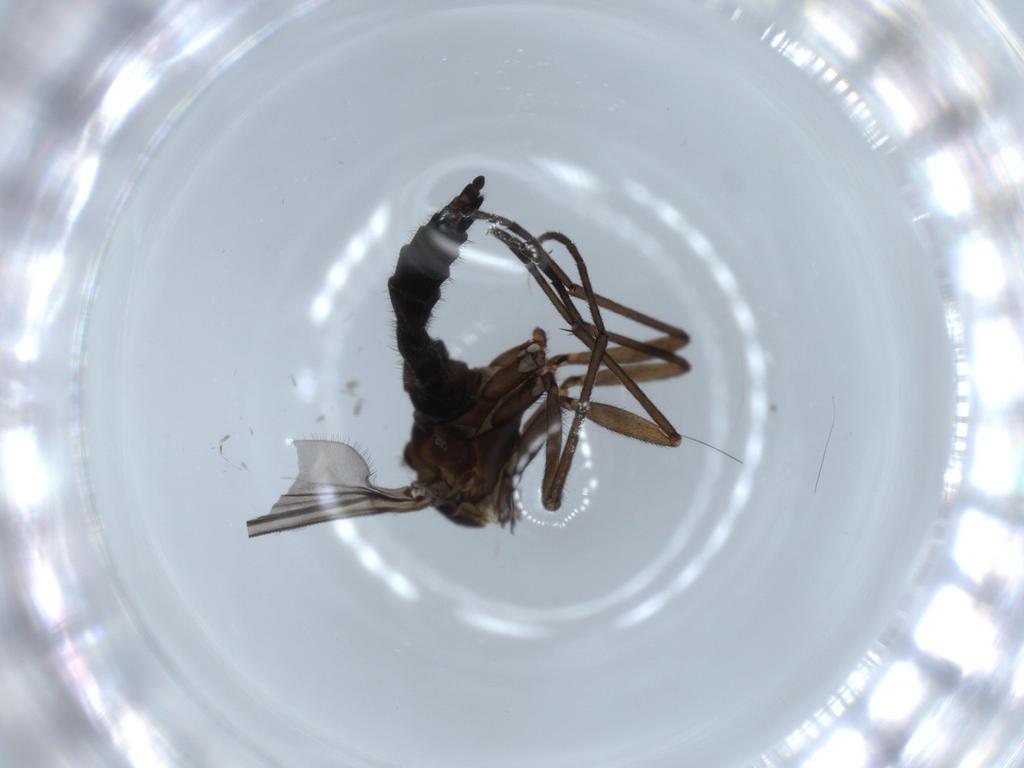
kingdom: Animalia
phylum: Arthropoda
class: Insecta
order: Diptera
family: Sciaridae
